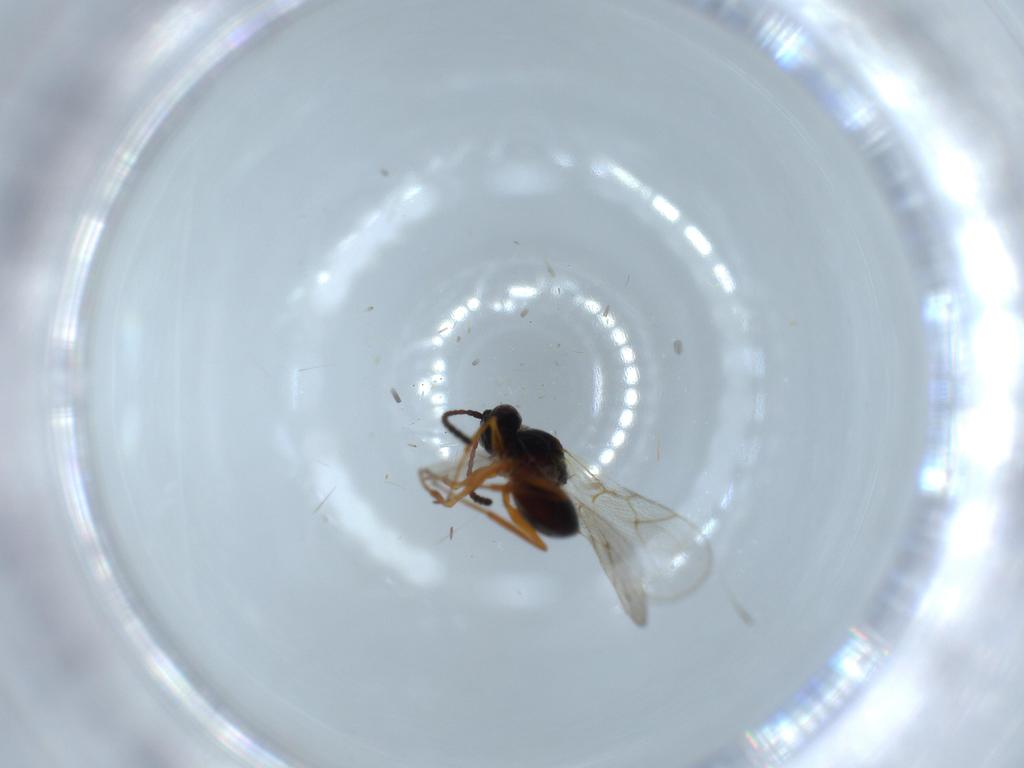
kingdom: Animalia
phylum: Arthropoda
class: Insecta
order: Hymenoptera
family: Figitidae
